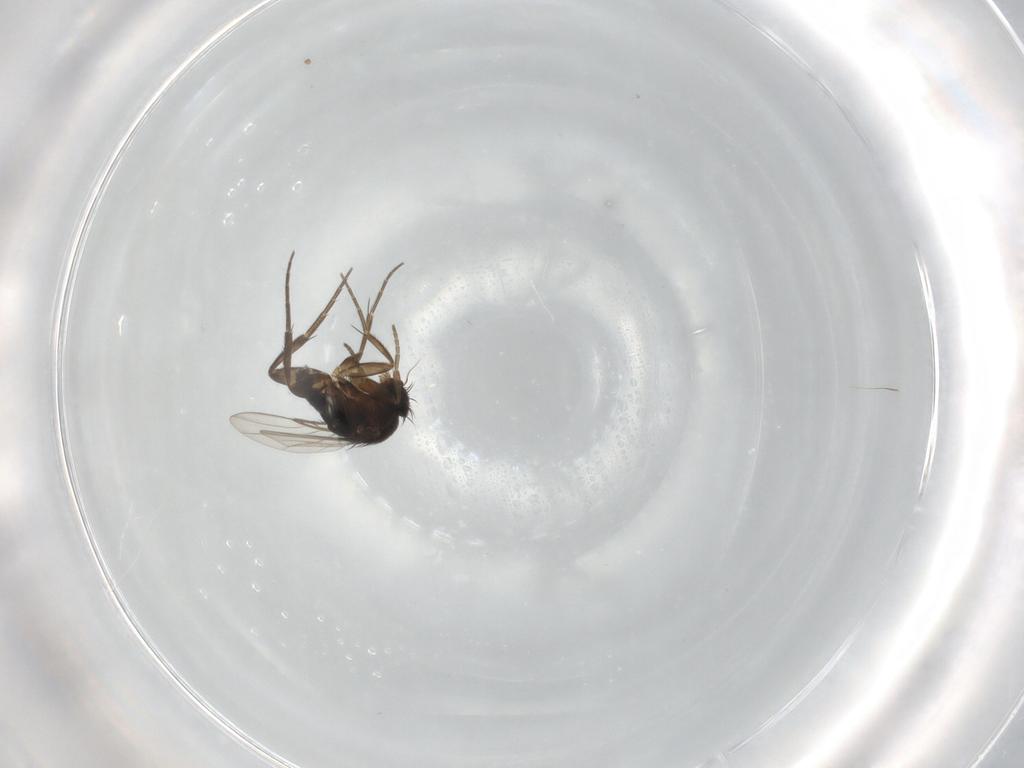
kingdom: Animalia
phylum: Arthropoda
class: Insecta
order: Diptera
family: Phoridae
